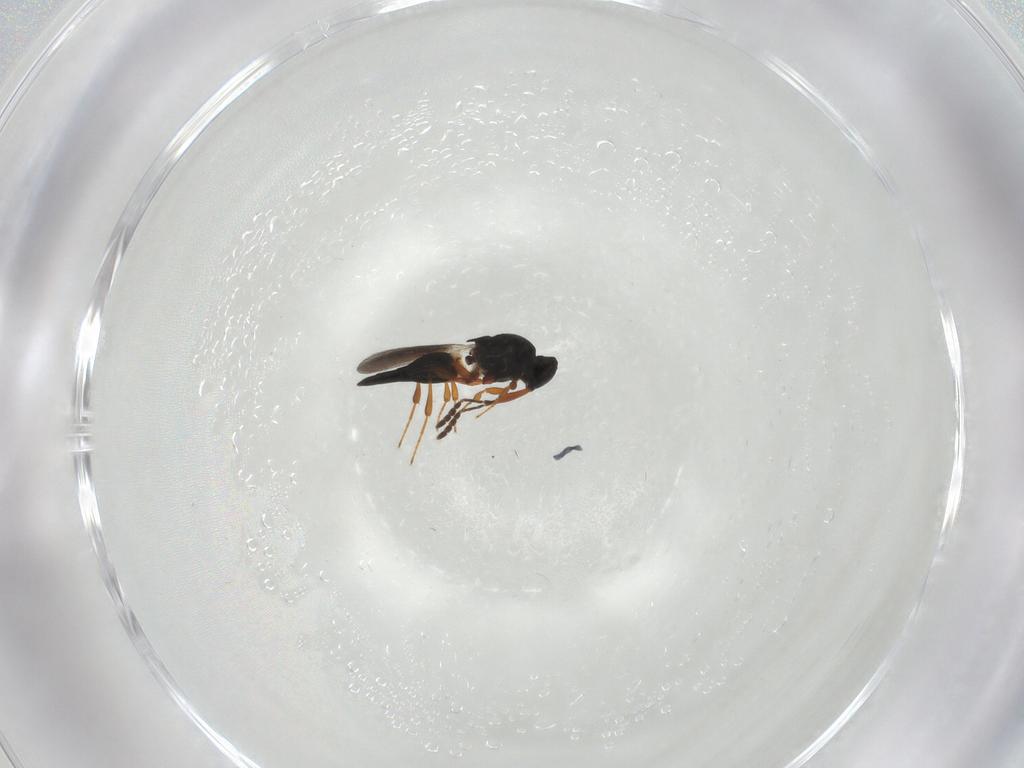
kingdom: Animalia
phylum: Arthropoda
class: Insecta
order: Hymenoptera
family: Platygastridae
